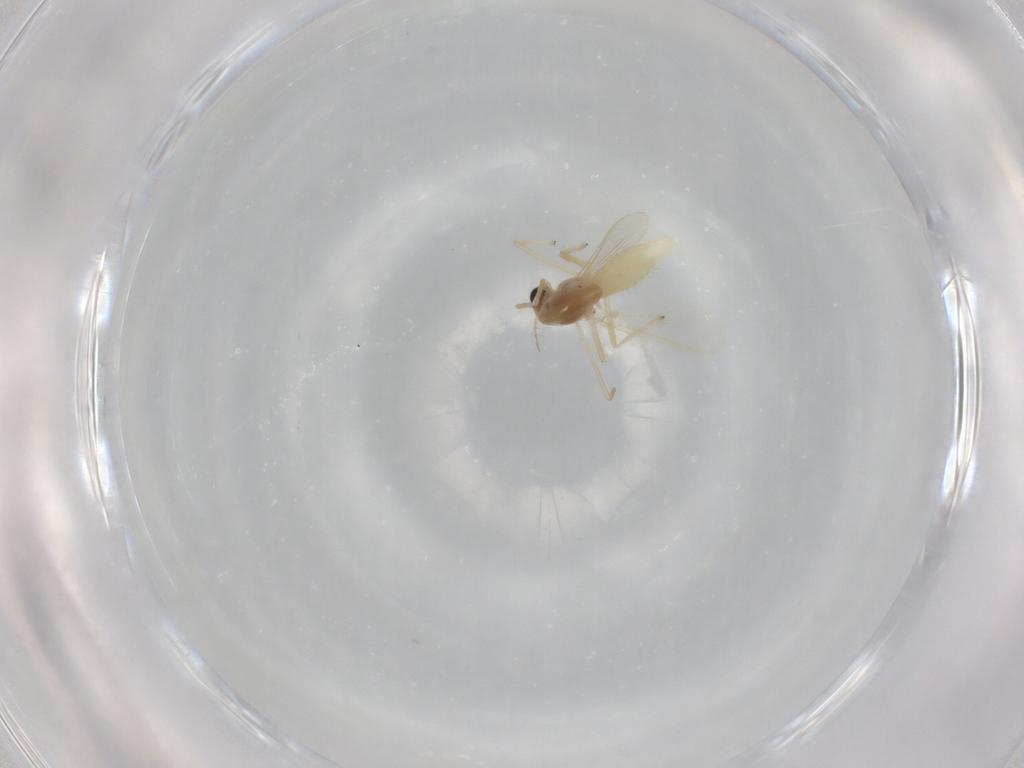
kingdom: Animalia
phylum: Arthropoda
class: Insecta
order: Diptera
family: Chironomidae
